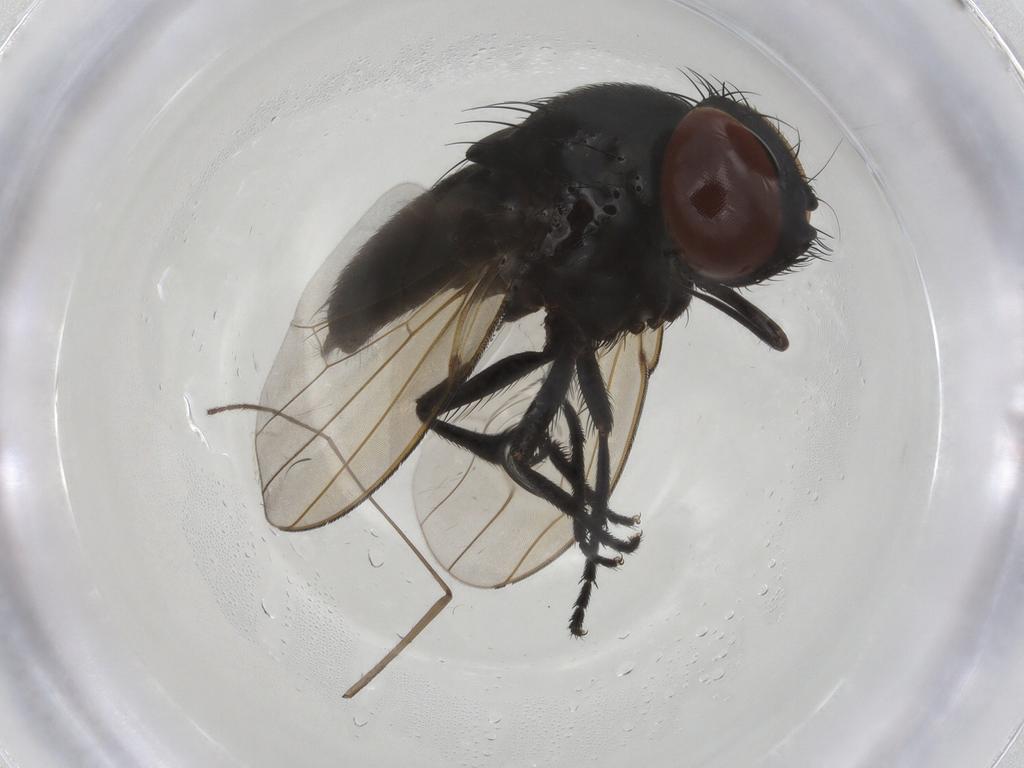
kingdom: Animalia
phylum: Arthropoda
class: Insecta
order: Diptera
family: Milichiidae
